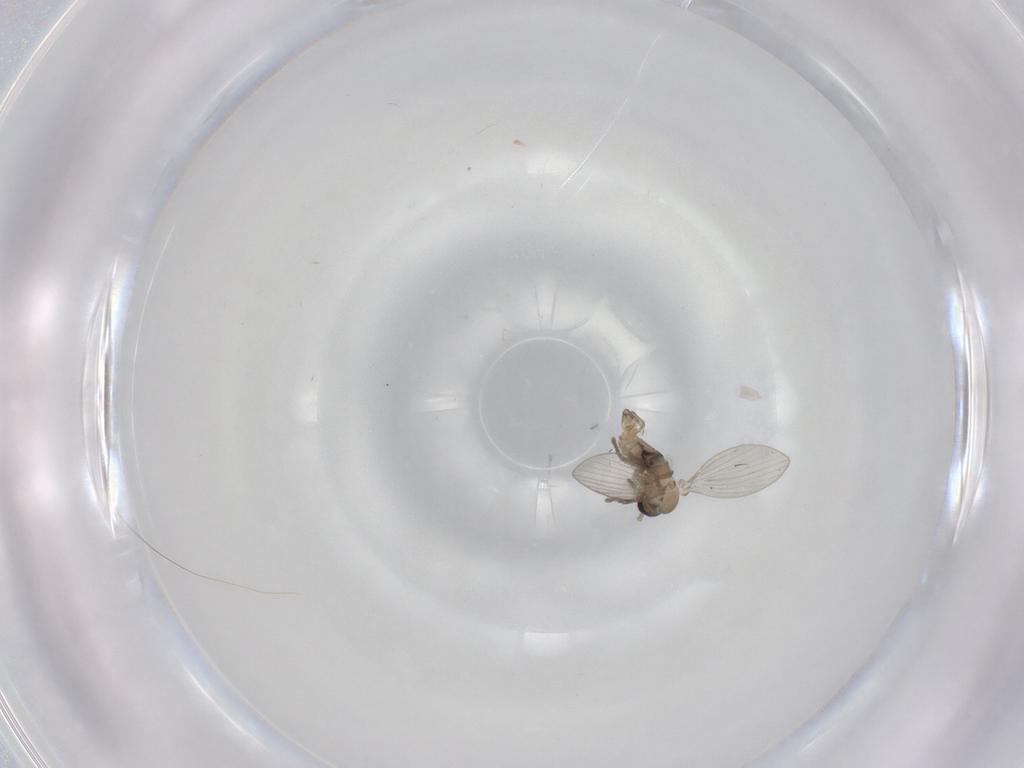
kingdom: Animalia
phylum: Arthropoda
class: Insecta
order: Diptera
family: Psychodidae
